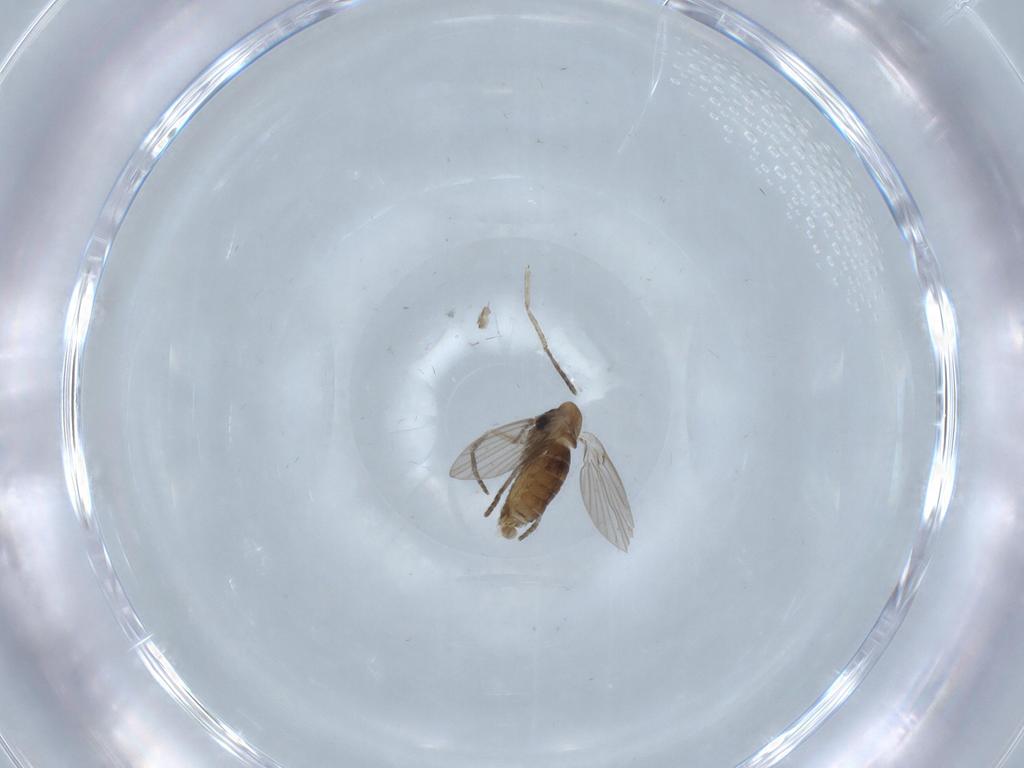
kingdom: Animalia
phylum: Arthropoda
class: Insecta
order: Diptera
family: Psychodidae
